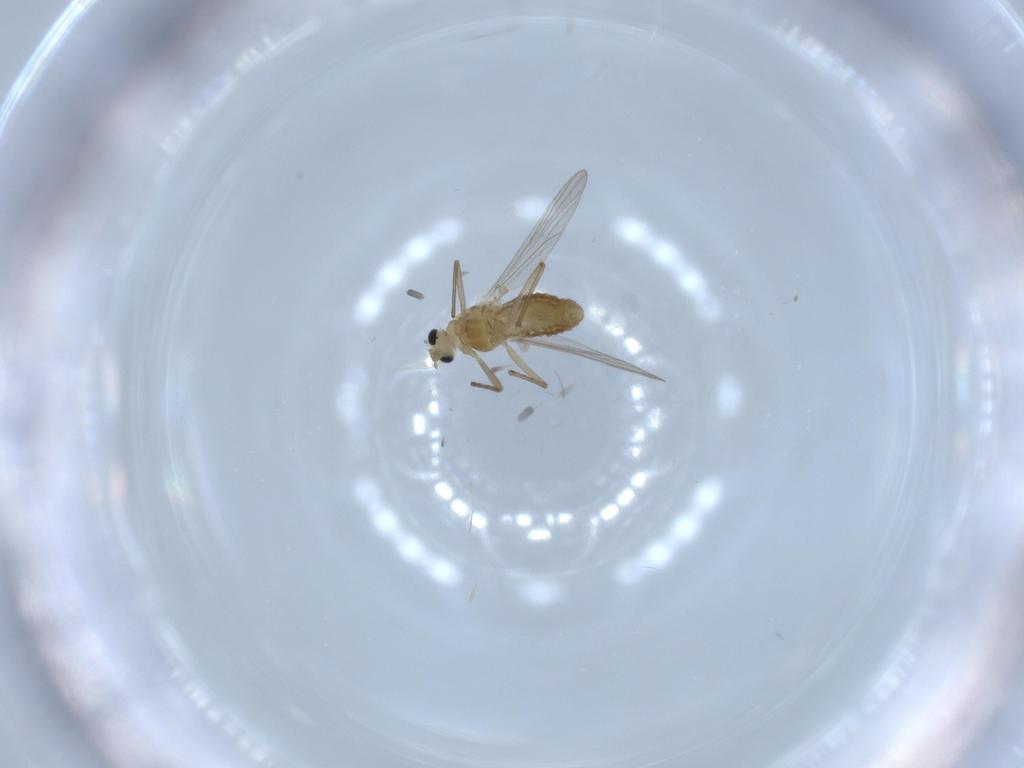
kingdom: Animalia
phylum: Arthropoda
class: Insecta
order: Diptera
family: Chironomidae
